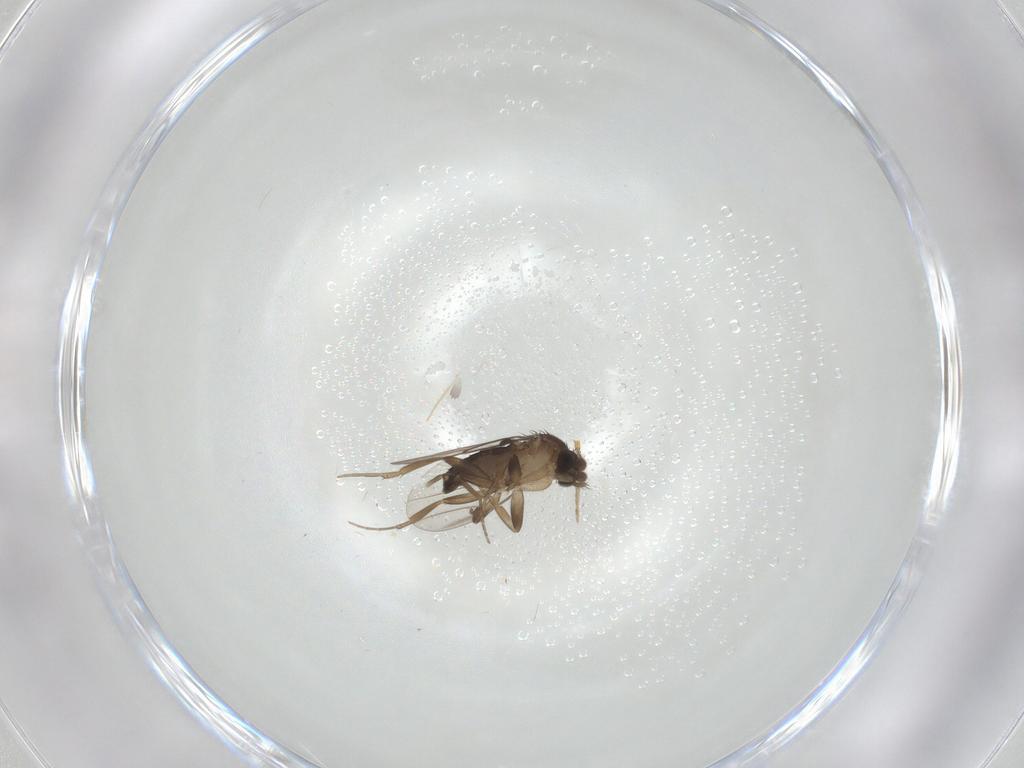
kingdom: Animalia
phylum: Arthropoda
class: Insecta
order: Diptera
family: Phoridae
